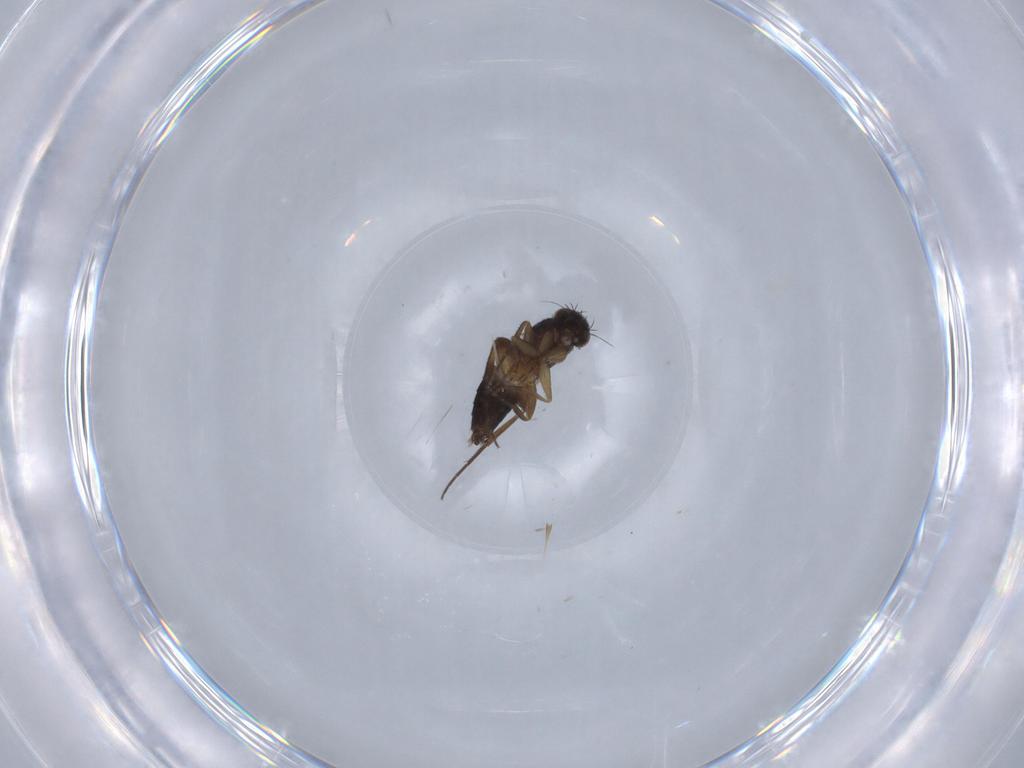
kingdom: Animalia
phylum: Arthropoda
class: Insecta
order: Diptera
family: Phoridae
